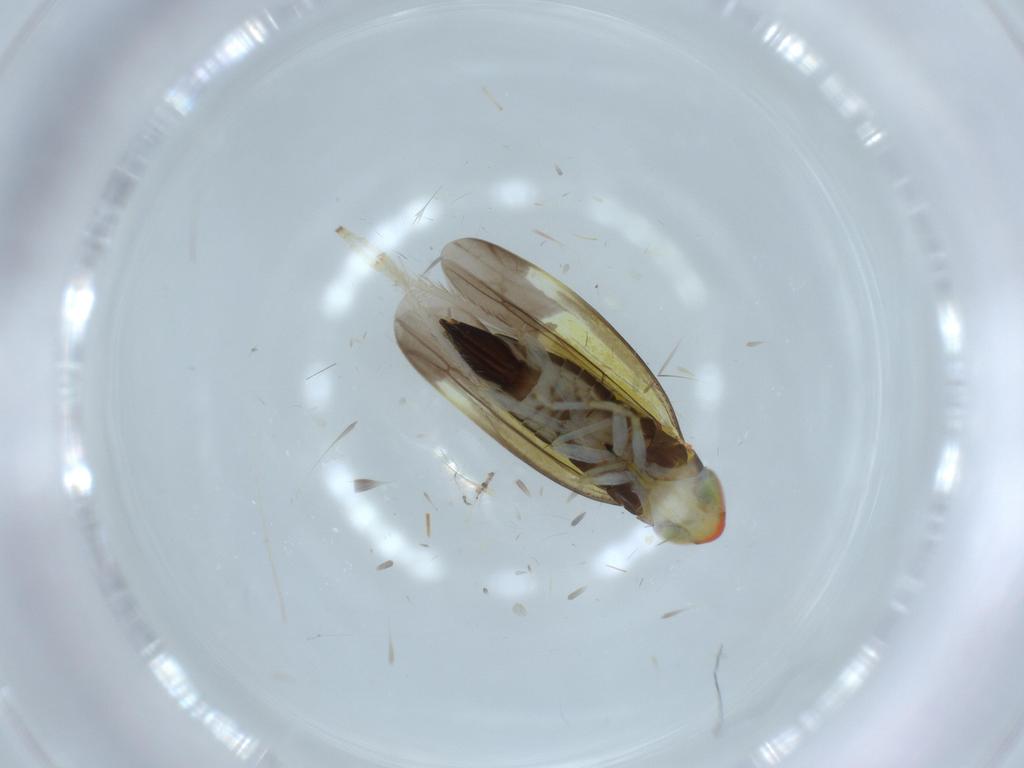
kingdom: Animalia
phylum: Arthropoda
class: Insecta
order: Hemiptera
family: Cicadellidae
